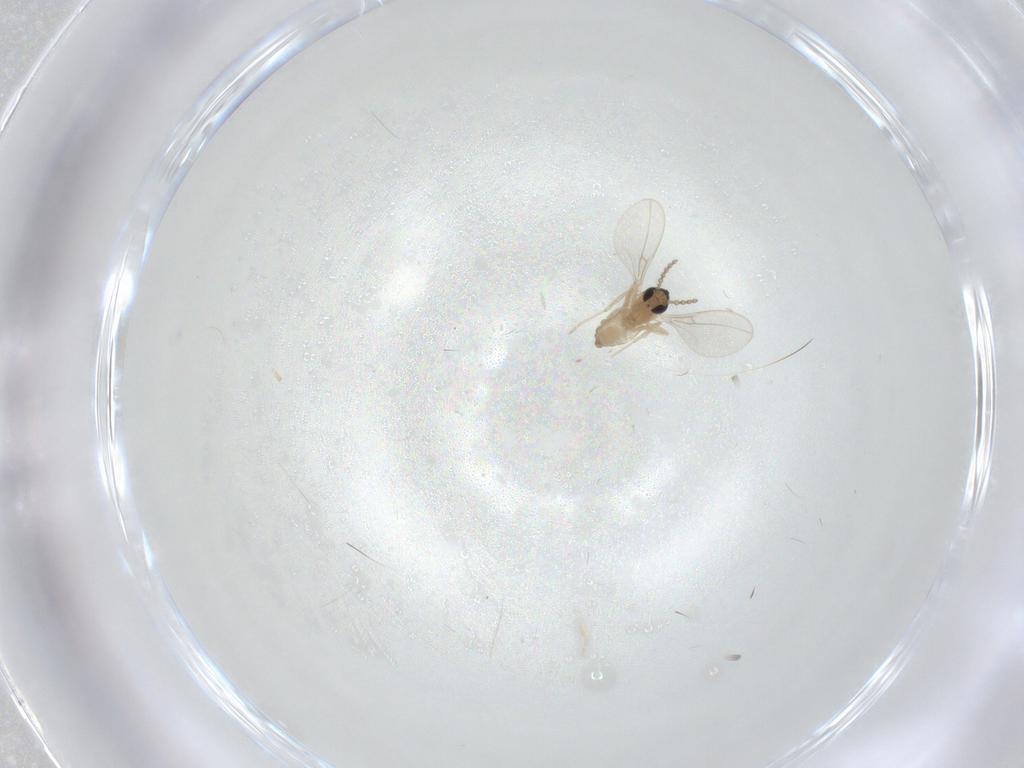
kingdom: Animalia
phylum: Arthropoda
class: Insecta
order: Diptera
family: Cecidomyiidae
